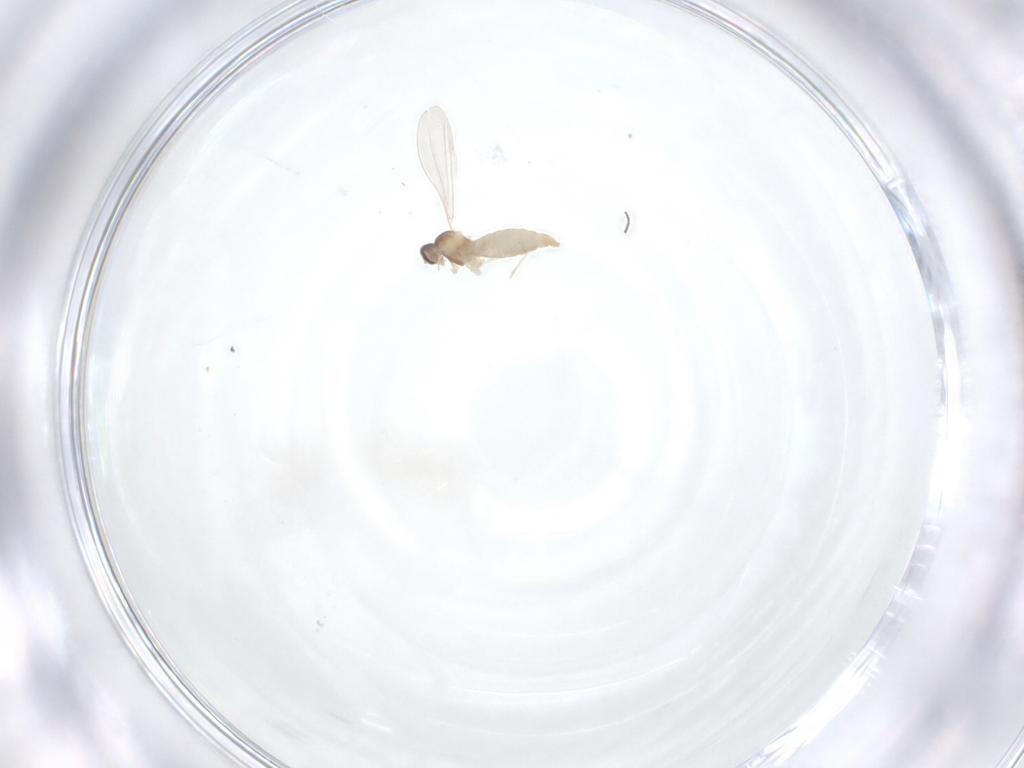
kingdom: Animalia
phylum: Arthropoda
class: Insecta
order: Diptera
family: Cecidomyiidae
